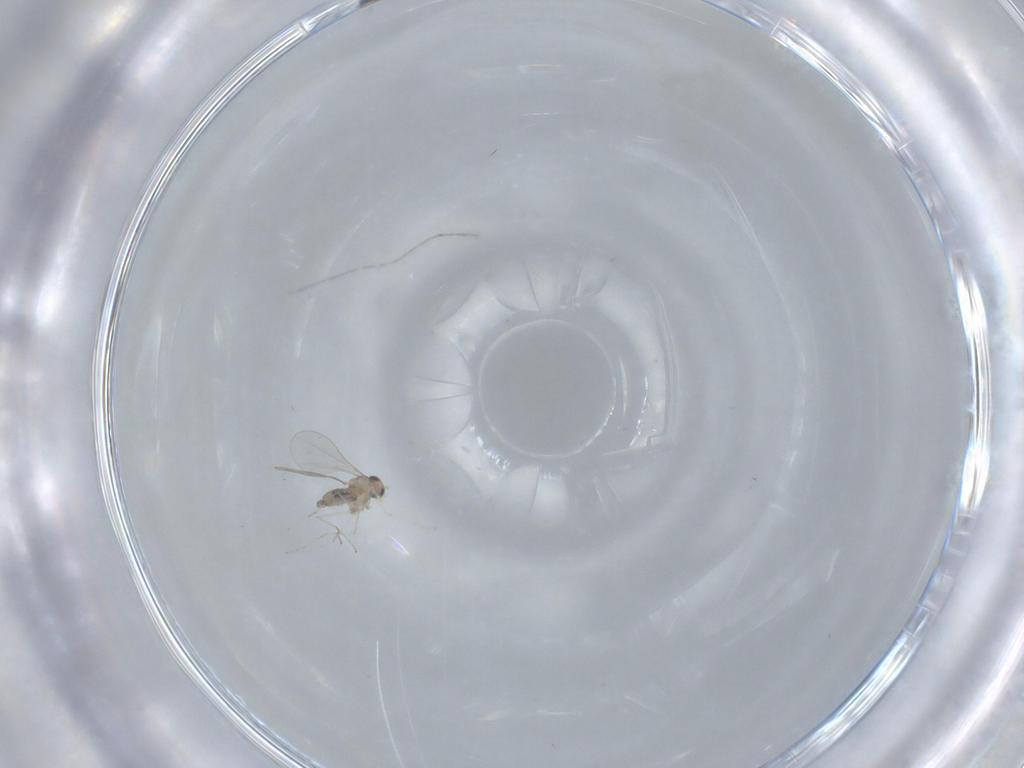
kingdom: Animalia
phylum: Arthropoda
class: Insecta
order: Diptera
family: Cecidomyiidae
